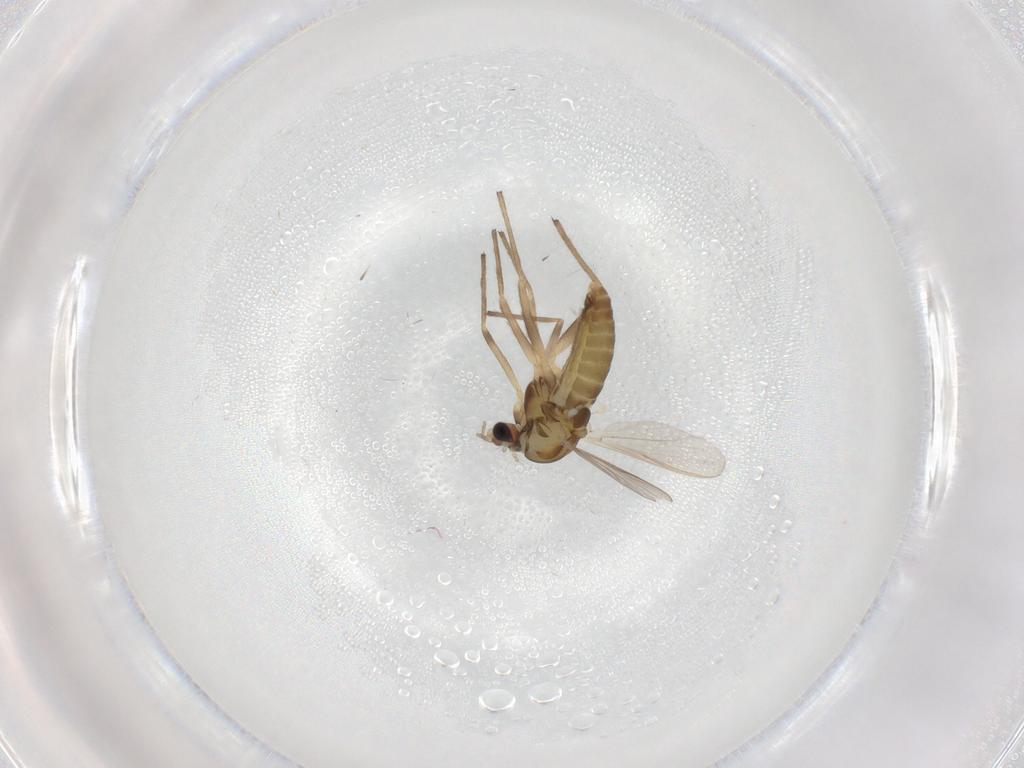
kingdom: Animalia
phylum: Arthropoda
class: Insecta
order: Diptera
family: Psychodidae
